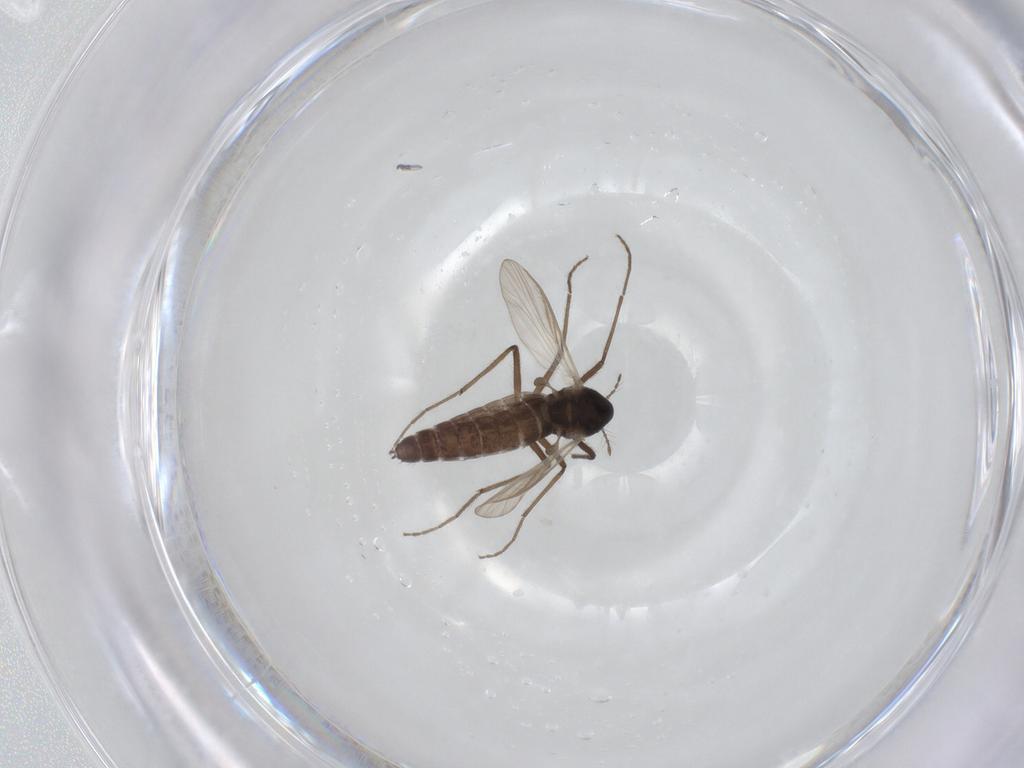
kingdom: Animalia
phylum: Arthropoda
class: Insecta
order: Diptera
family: Chironomidae
